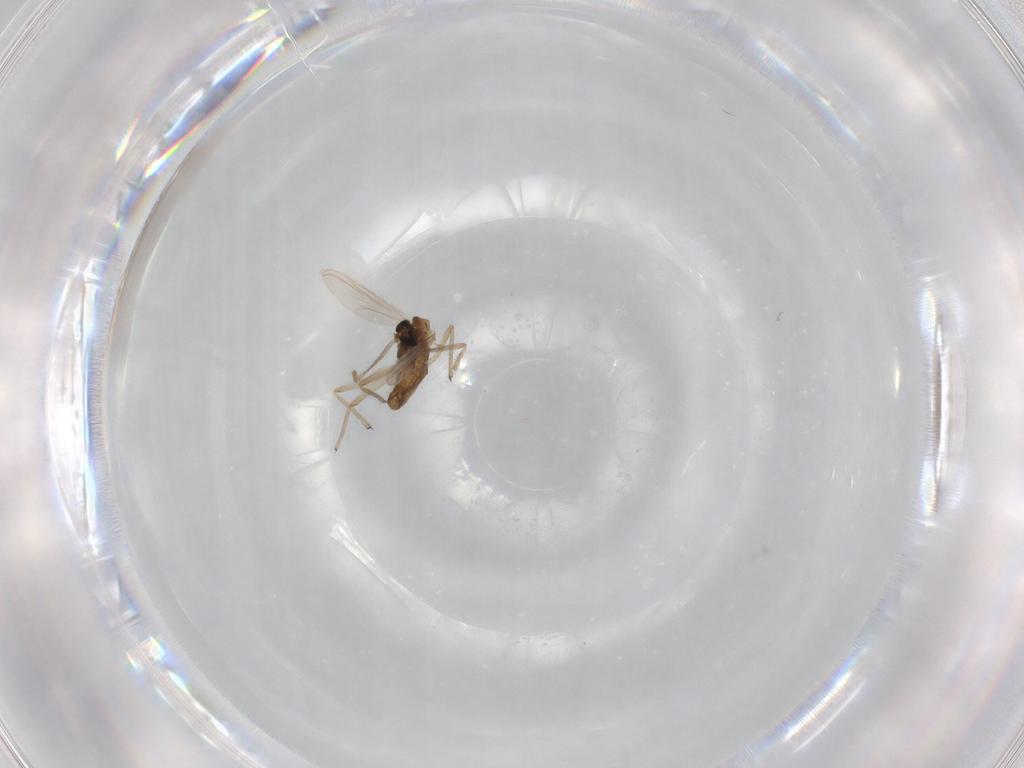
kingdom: Animalia
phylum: Arthropoda
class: Insecta
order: Diptera
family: Chironomidae
